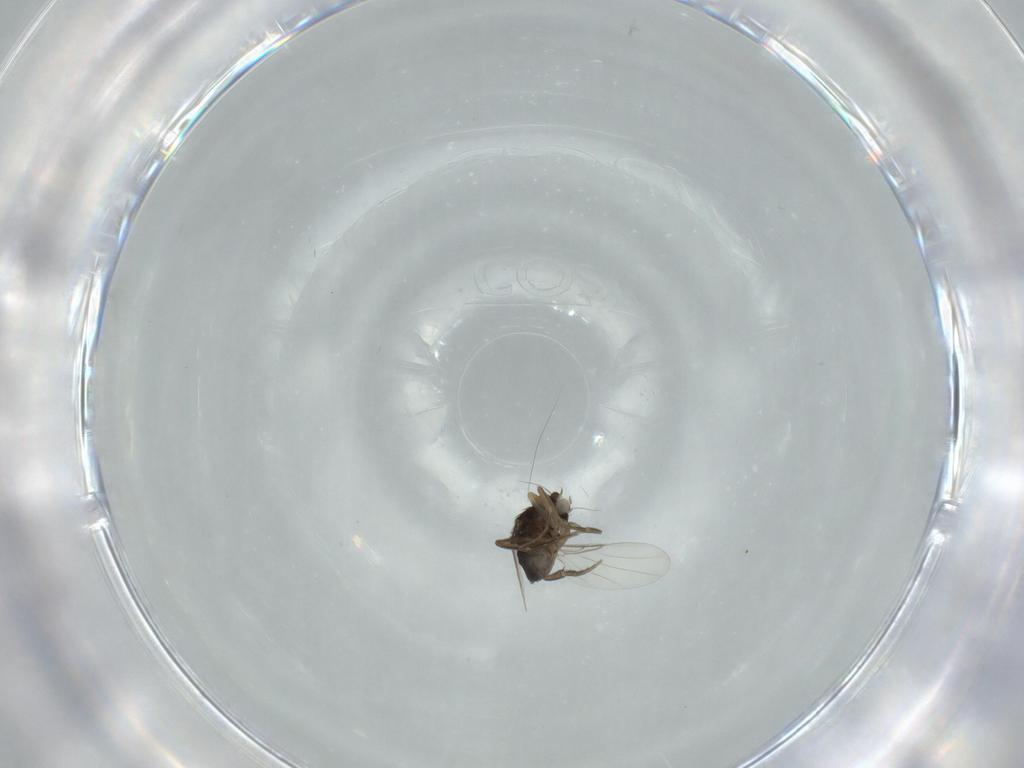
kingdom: Animalia
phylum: Arthropoda
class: Insecta
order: Diptera
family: Phoridae
